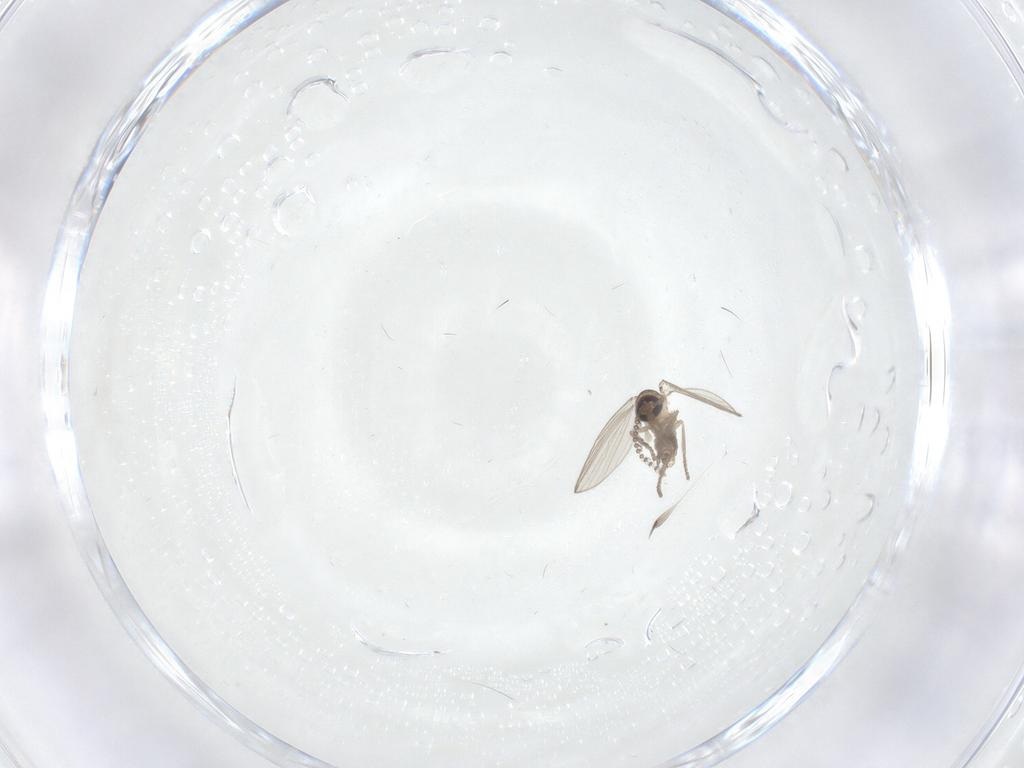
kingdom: Animalia
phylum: Arthropoda
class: Insecta
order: Diptera
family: Psychodidae
